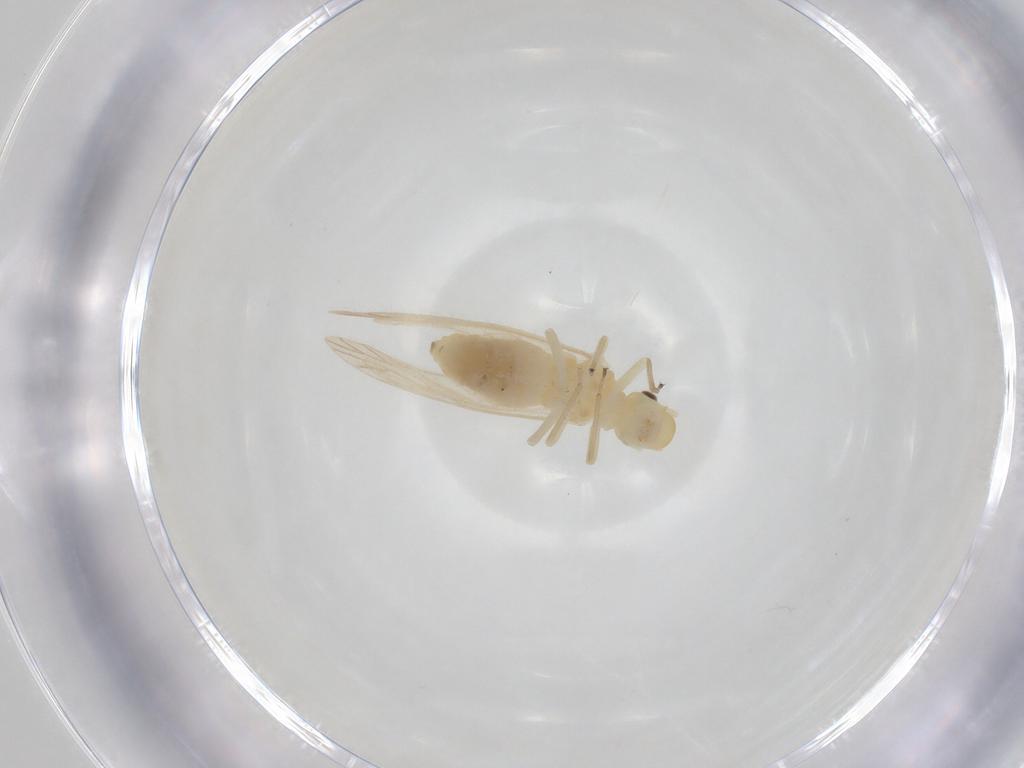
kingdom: Animalia
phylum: Arthropoda
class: Insecta
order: Psocodea
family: Caeciliusidae
